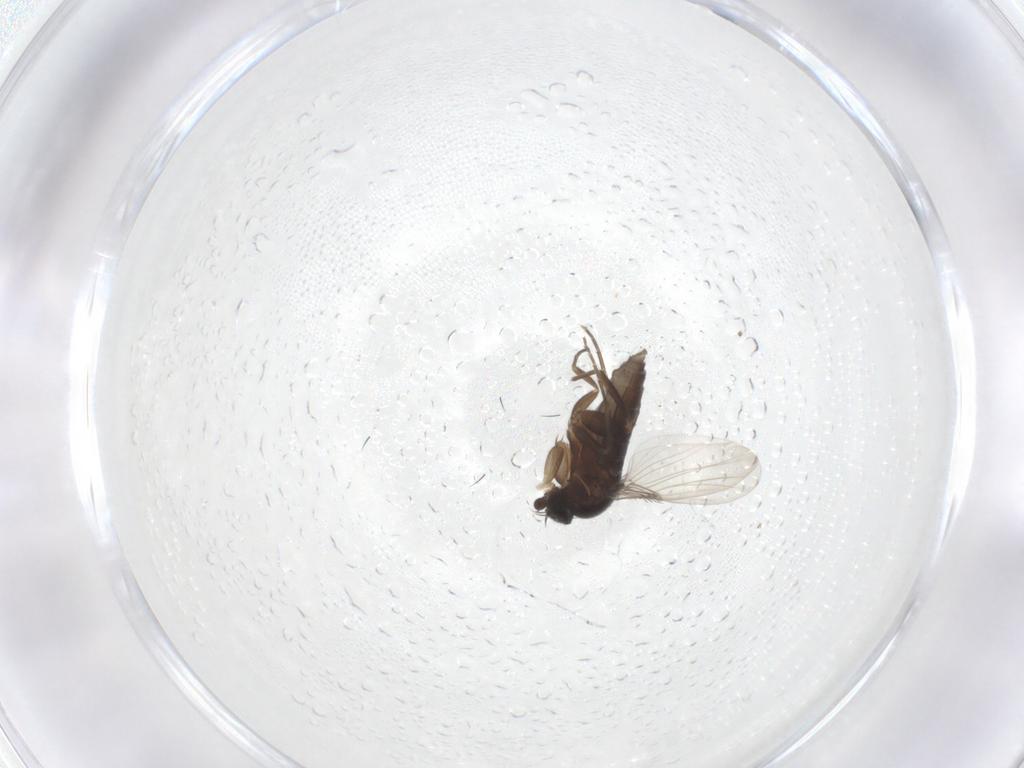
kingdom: Animalia
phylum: Arthropoda
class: Insecta
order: Diptera
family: Phoridae
